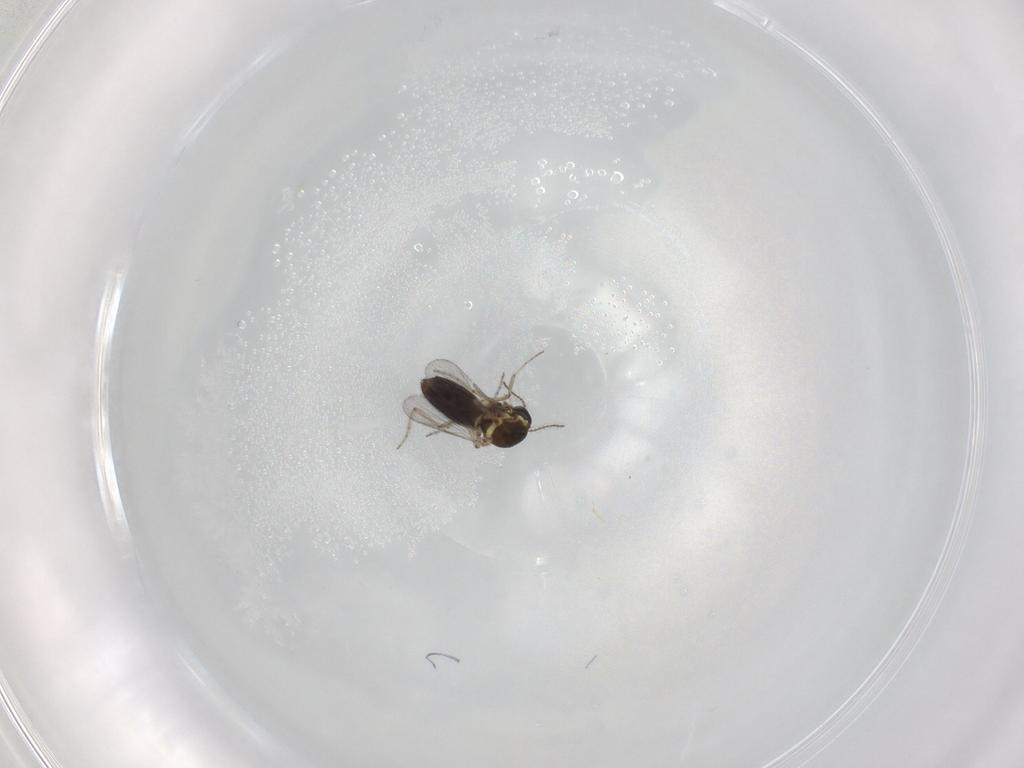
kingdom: Animalia
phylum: Arthropoda
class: Insecta
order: Diptera
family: Ceratopogonidae
